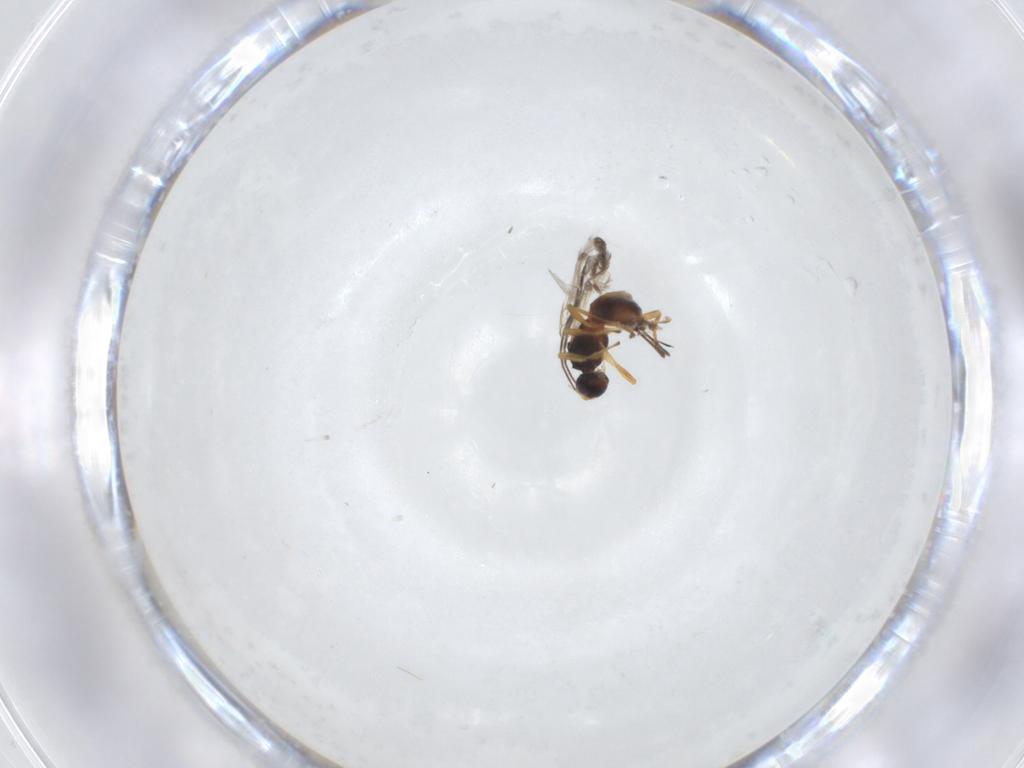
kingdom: Animalia
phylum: Arthropoda
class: Insecta
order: Hymenoptera
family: Braconidae
